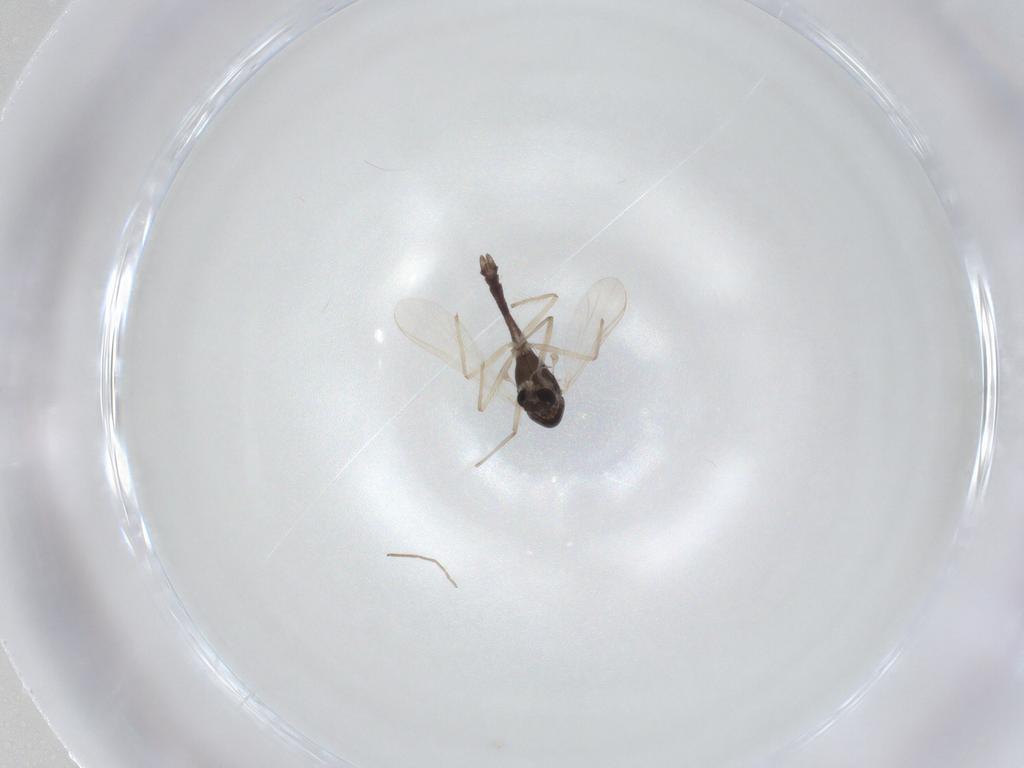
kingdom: Animalia
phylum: Arthropoda
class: Insecta
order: Diptera
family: Chironomidae
